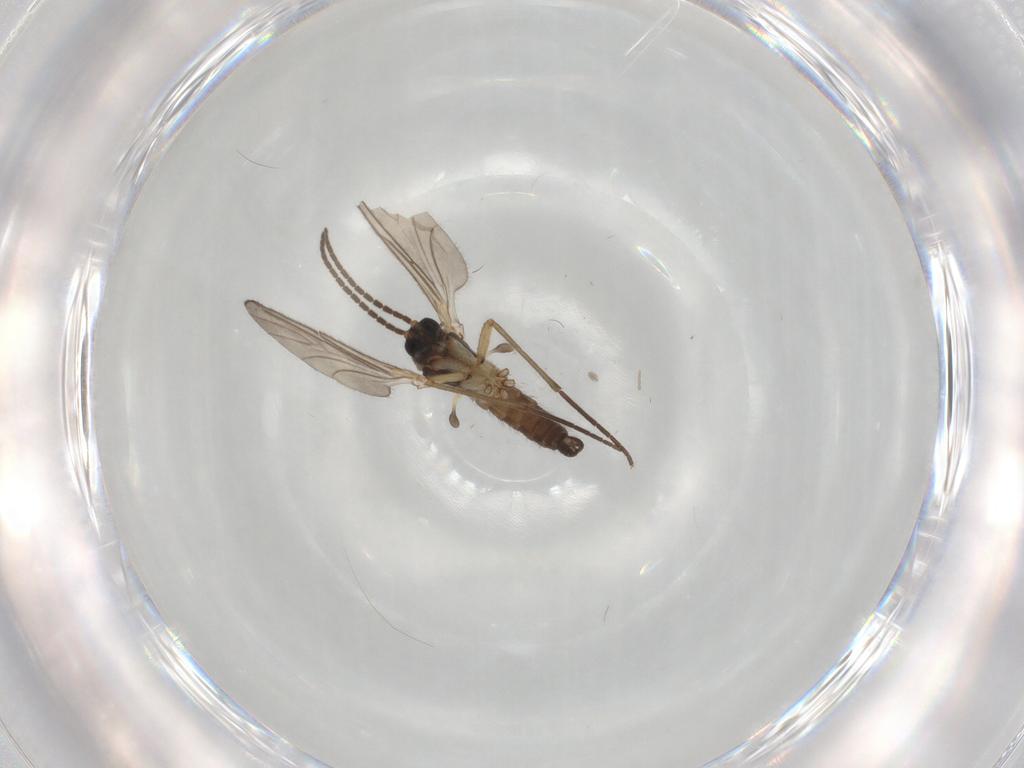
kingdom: Animalia
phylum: Arthropoda
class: Insecta
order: Diptera
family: Sciaridae
